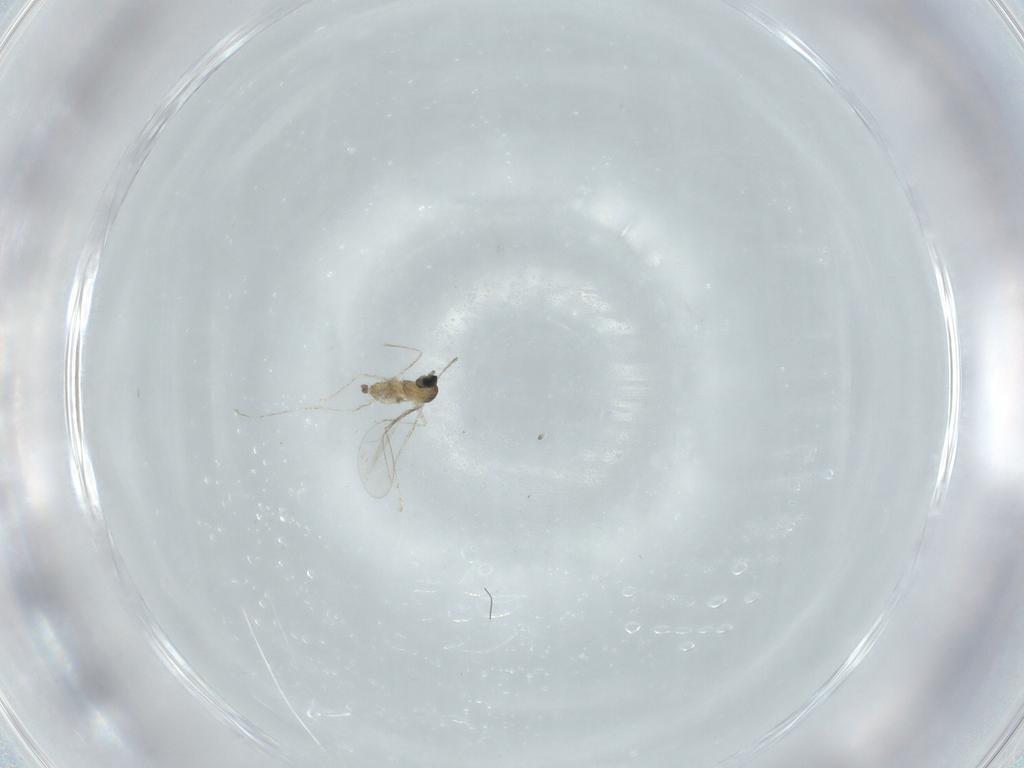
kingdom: Animalia
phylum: Arthropoda
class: Insecta
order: Diptera
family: Cecidomyiidae
